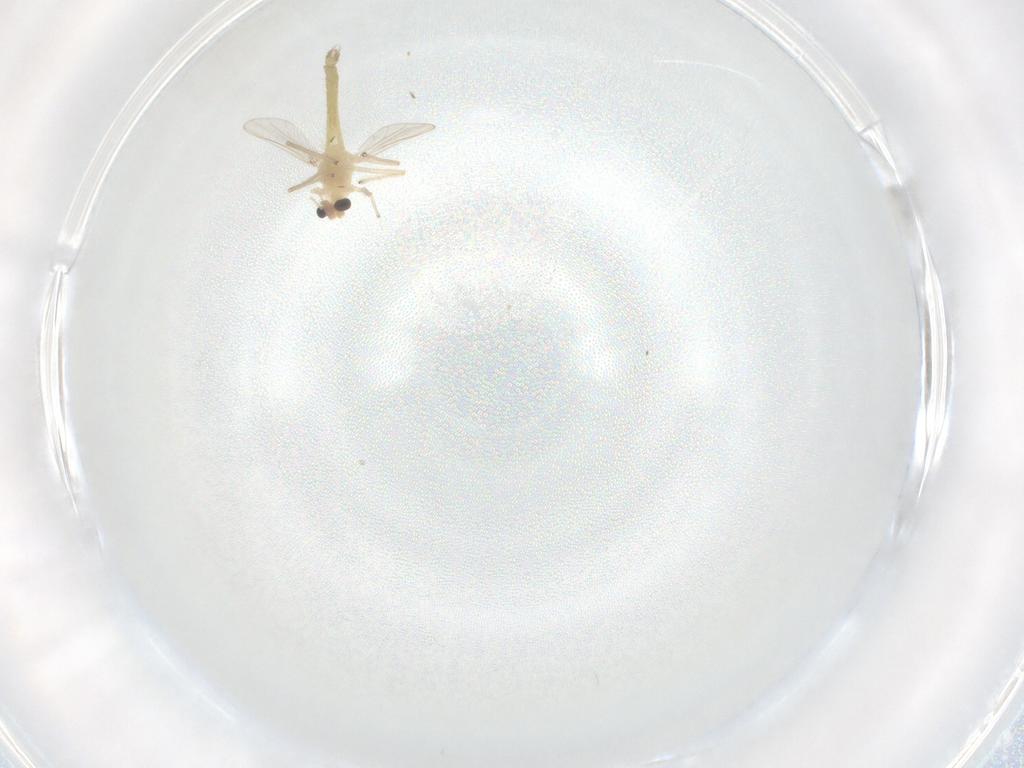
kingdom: Animalia
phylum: Arthropoda
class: Insecta
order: Diptera
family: Chironomidae
